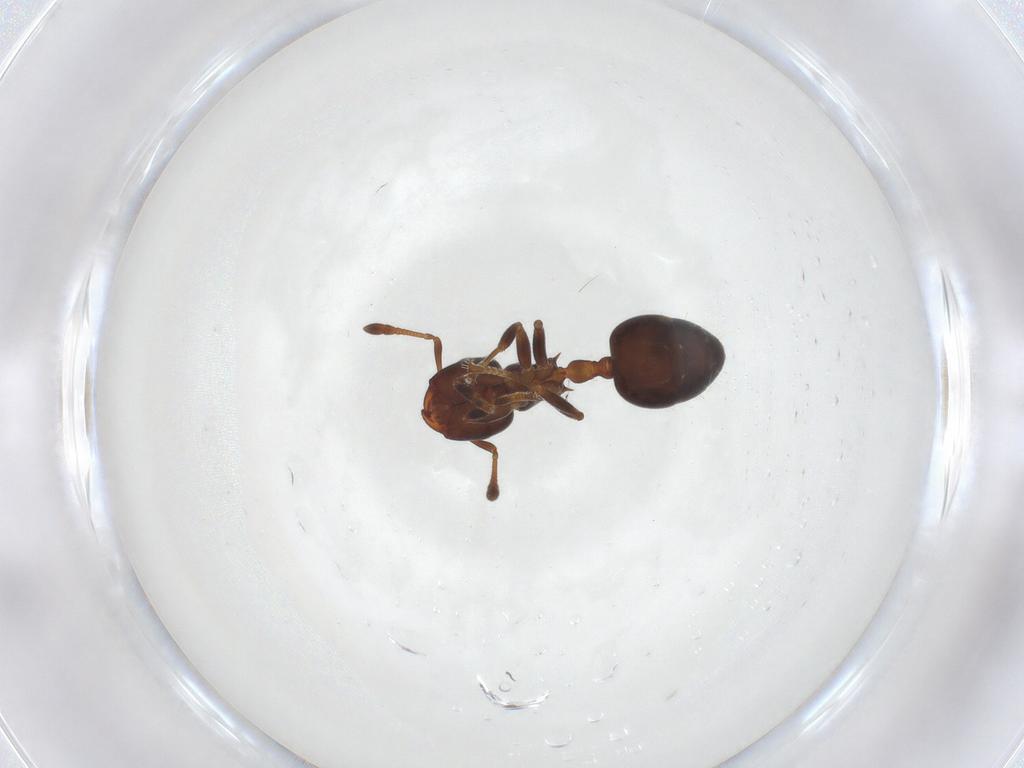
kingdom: Animalia
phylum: Arthropoda
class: Insecta
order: Hymenoptera
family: Formicidae
